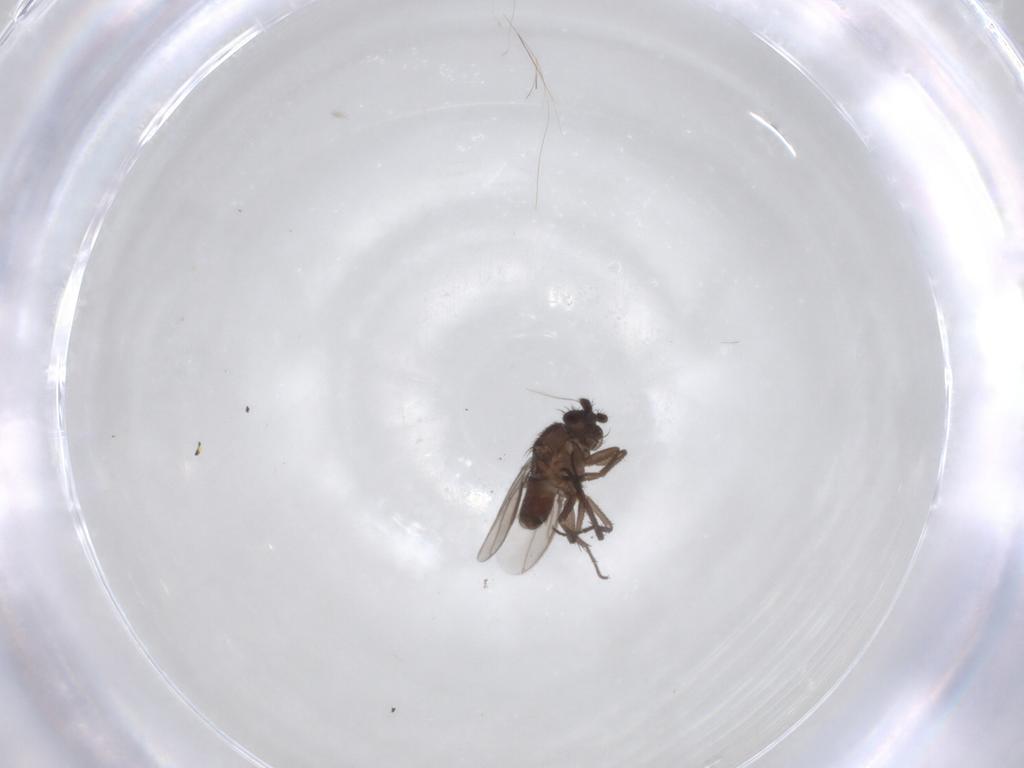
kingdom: Animalia
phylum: Arthropoda
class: Insecta
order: Diptera
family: Sphaeroceridae
